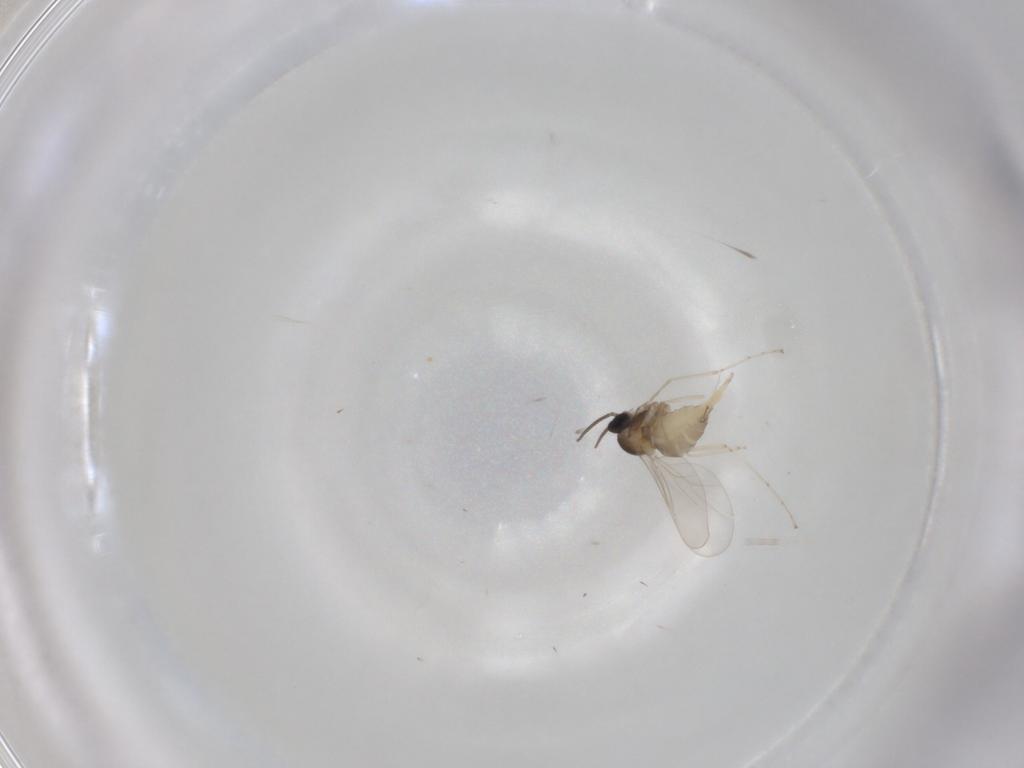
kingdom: Animalia
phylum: Arthropoda
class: Insecta
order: Diptera
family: Cecidomyiidae
